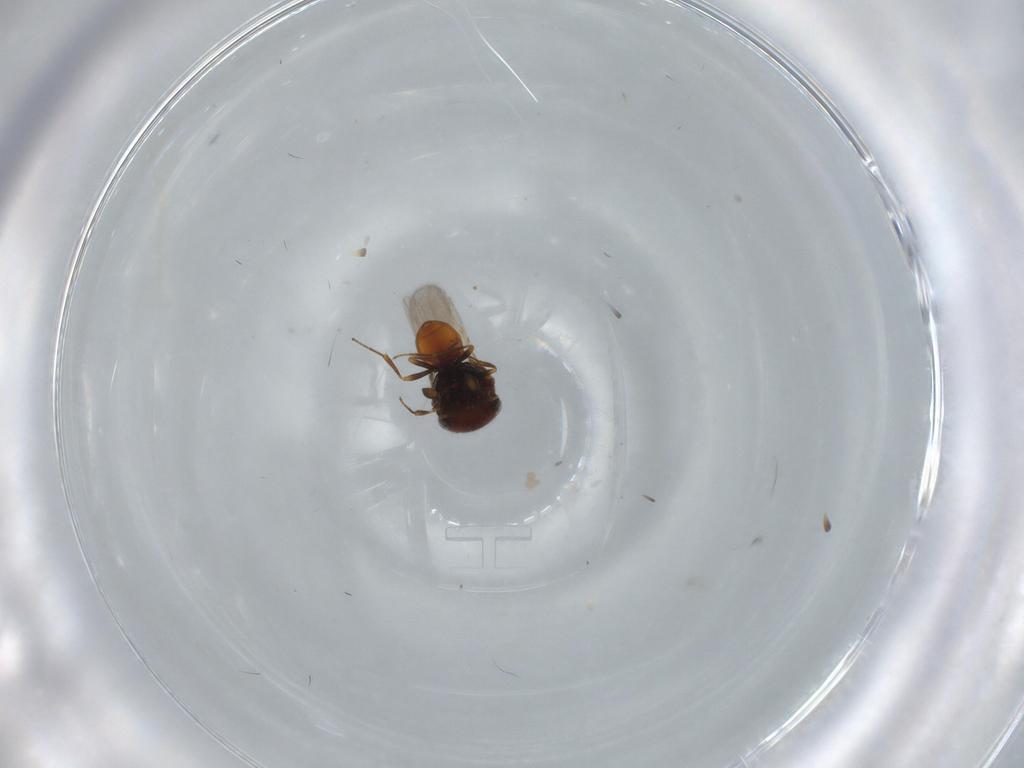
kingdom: Animalia
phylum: Arthropoda
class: Insecta
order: Hymenoptera
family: Scelionidae
